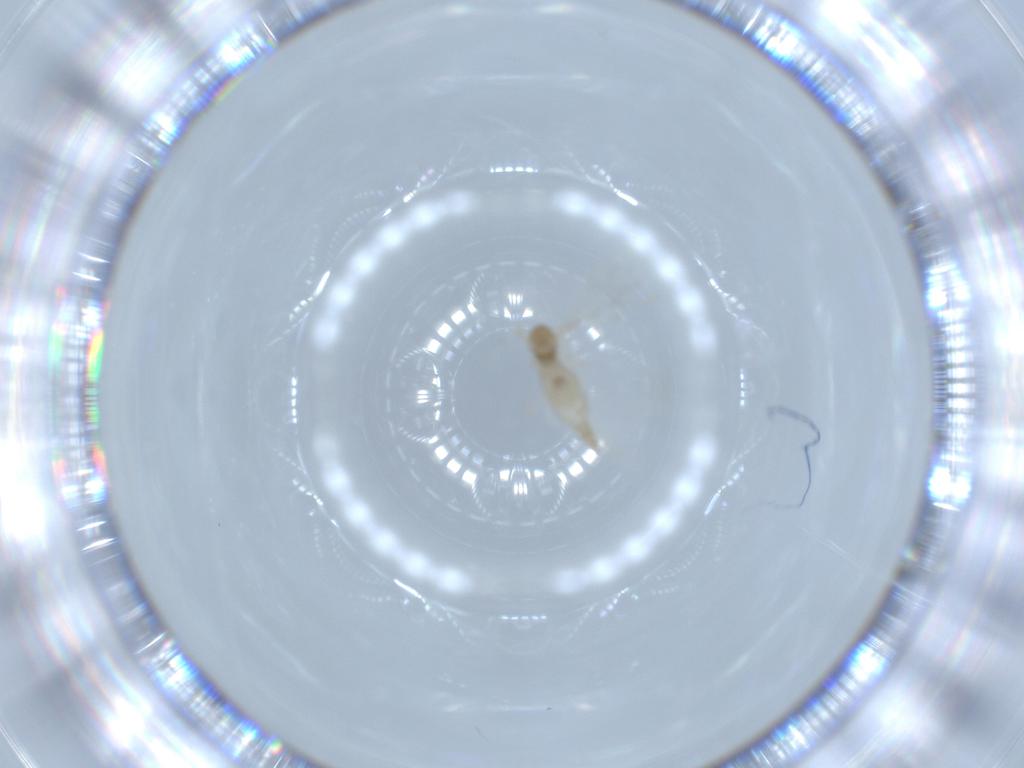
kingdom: Animalia
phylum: Arthropoda
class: Insecta
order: Diptera
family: Cecidomyiidae
